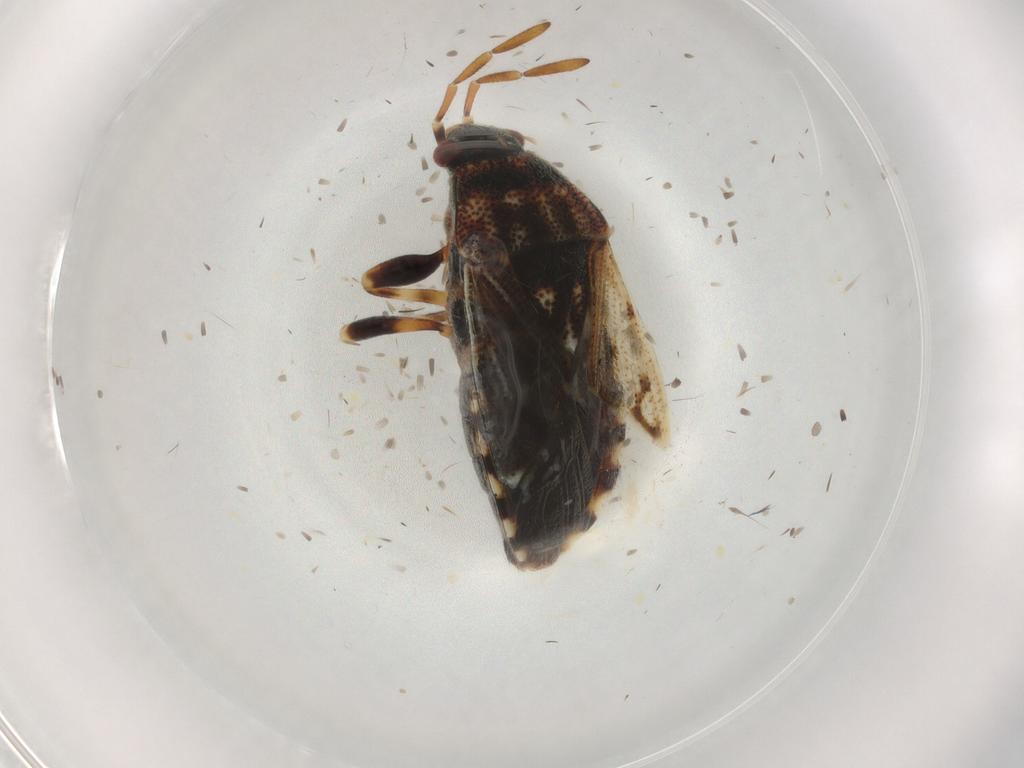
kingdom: Animalia
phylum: Arthropoda
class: Insecta
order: Hemiptera
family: Rhopalidae
